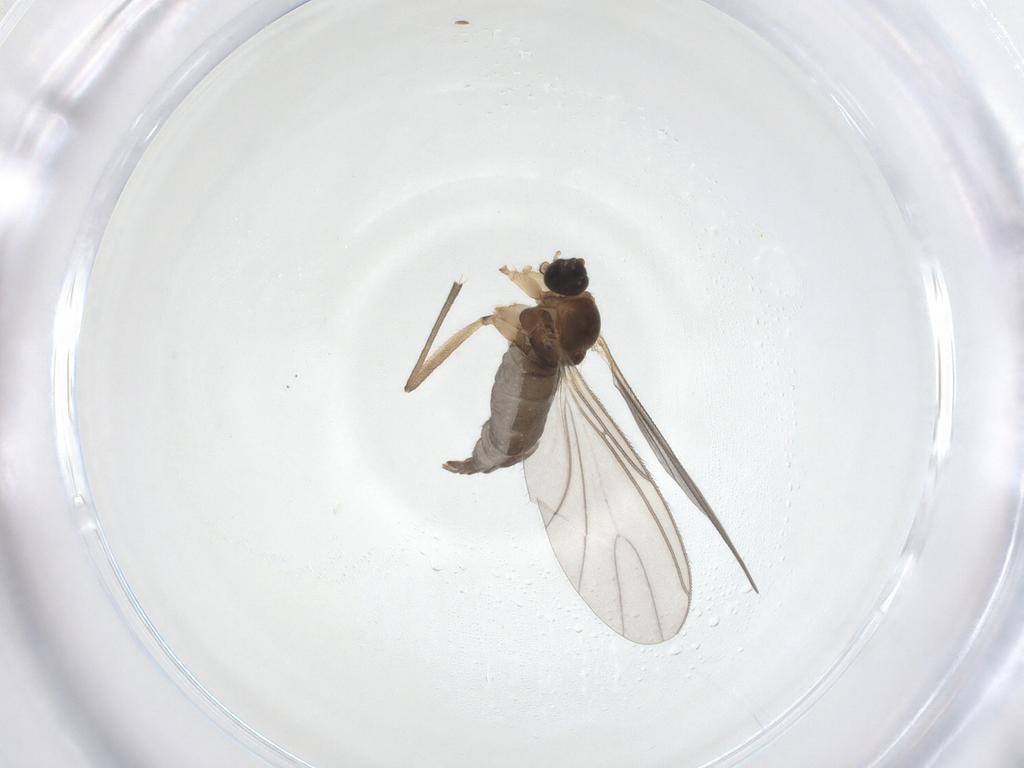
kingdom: Animalia
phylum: Arthropoda
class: Insecta
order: Diptera
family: Sciaridae
